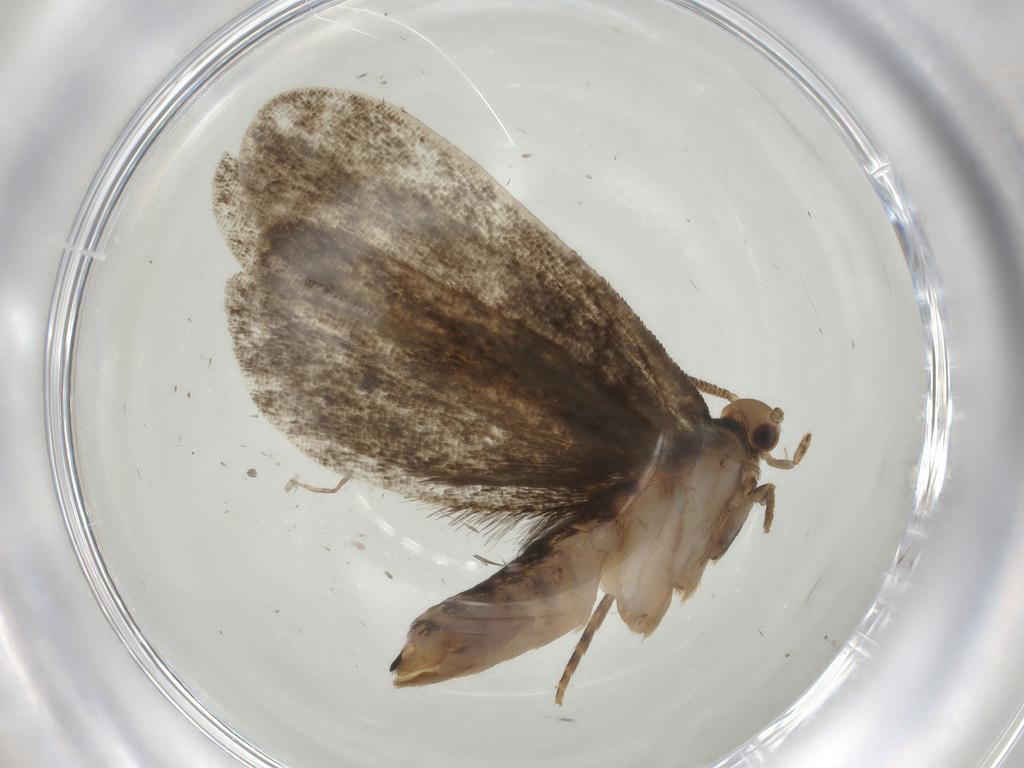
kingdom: Animalia
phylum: Arthropoda
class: Insecta
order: Lepidoptera
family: Dryadaulidae
